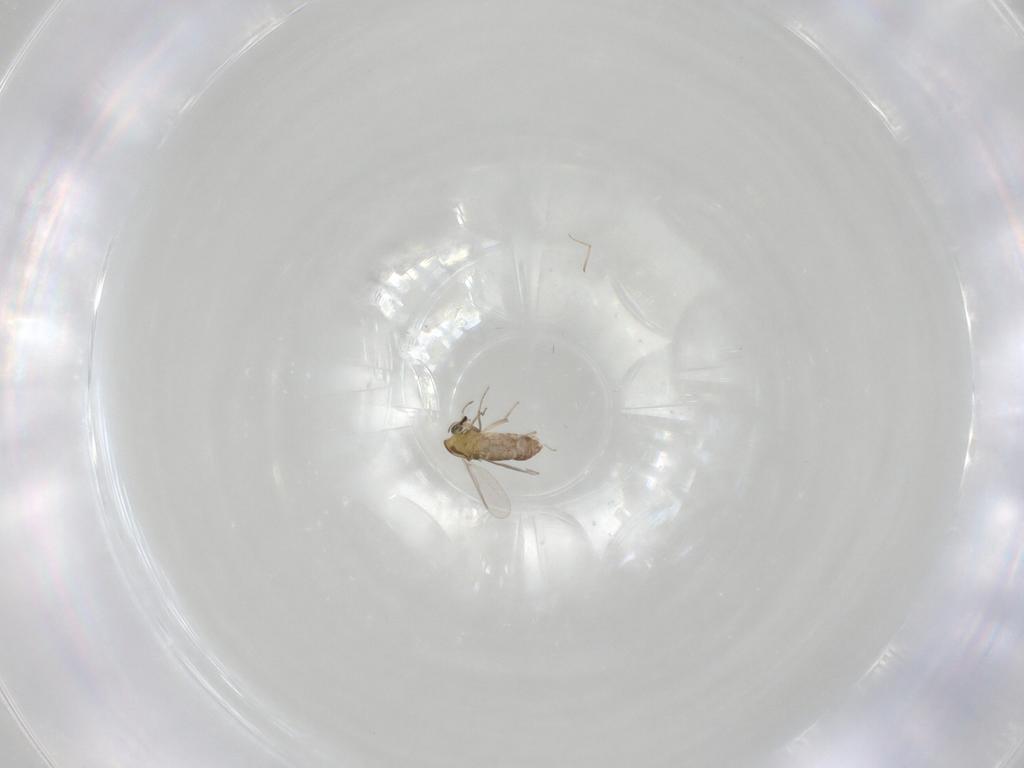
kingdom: Animalia
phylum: Arthropoda
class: Insecta
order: Diptera
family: Chironomidae
